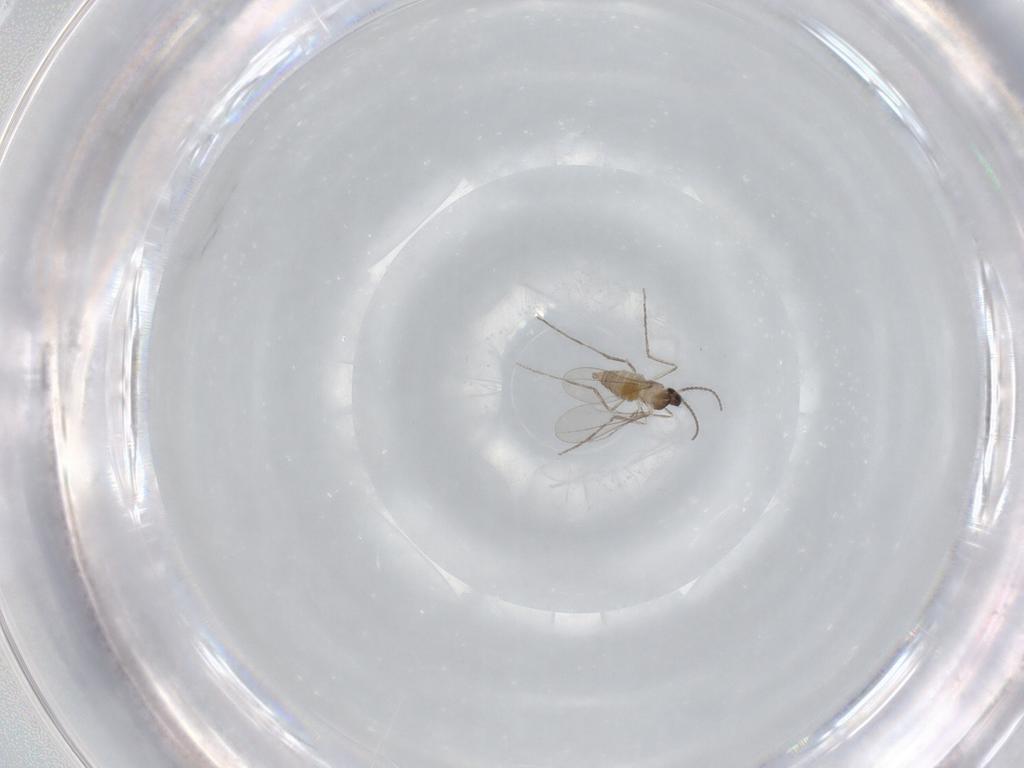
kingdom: Animalia
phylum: Arthropoda
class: Insecta
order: Diptera
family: Cecidomyiidae
